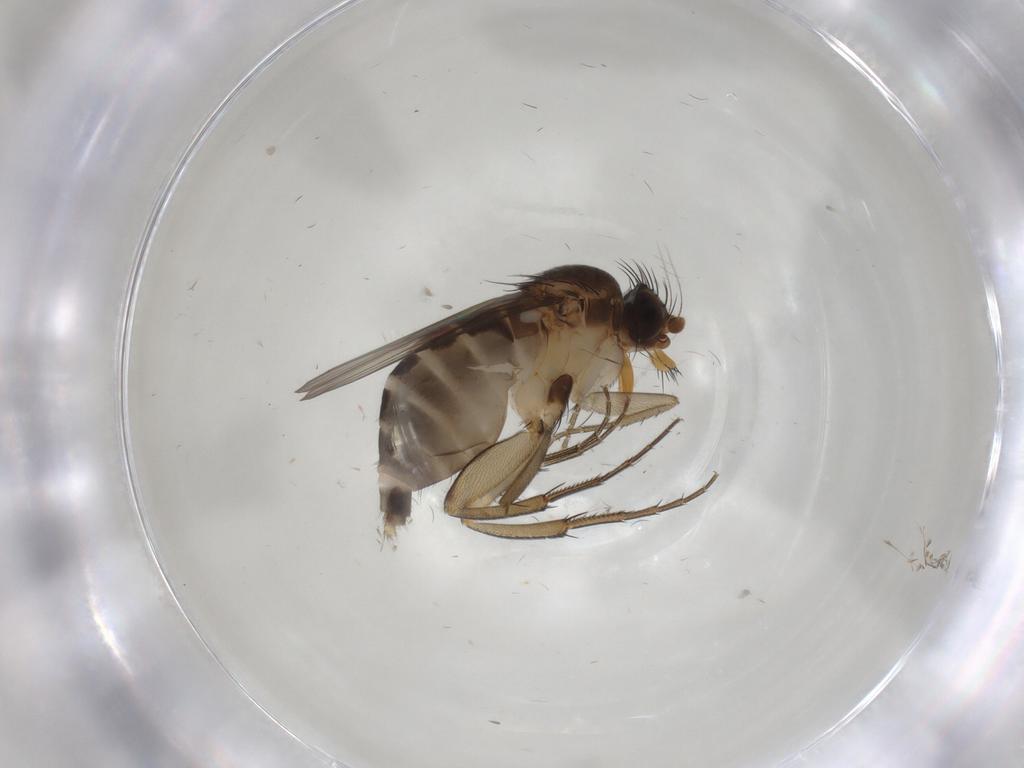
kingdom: Animalia
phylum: Arthropoda
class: Insecta
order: Diptera
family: Phoridae
